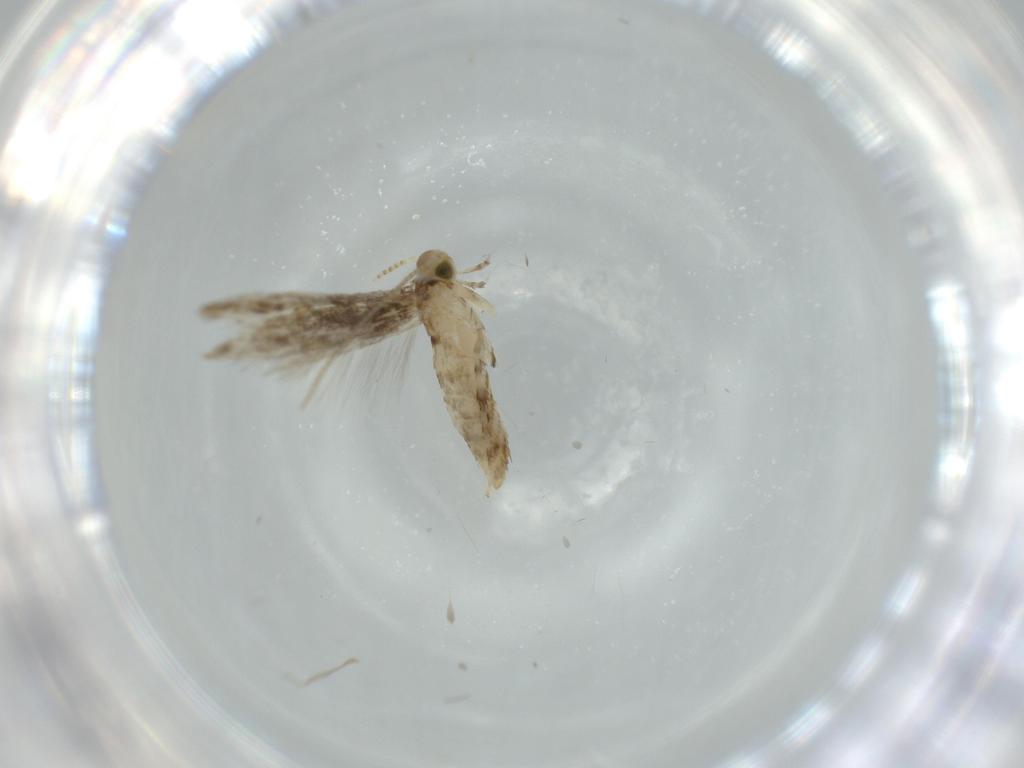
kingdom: Animalia
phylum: Arthropoda
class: Insecta
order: Lepidoptera
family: Gracillariidae
